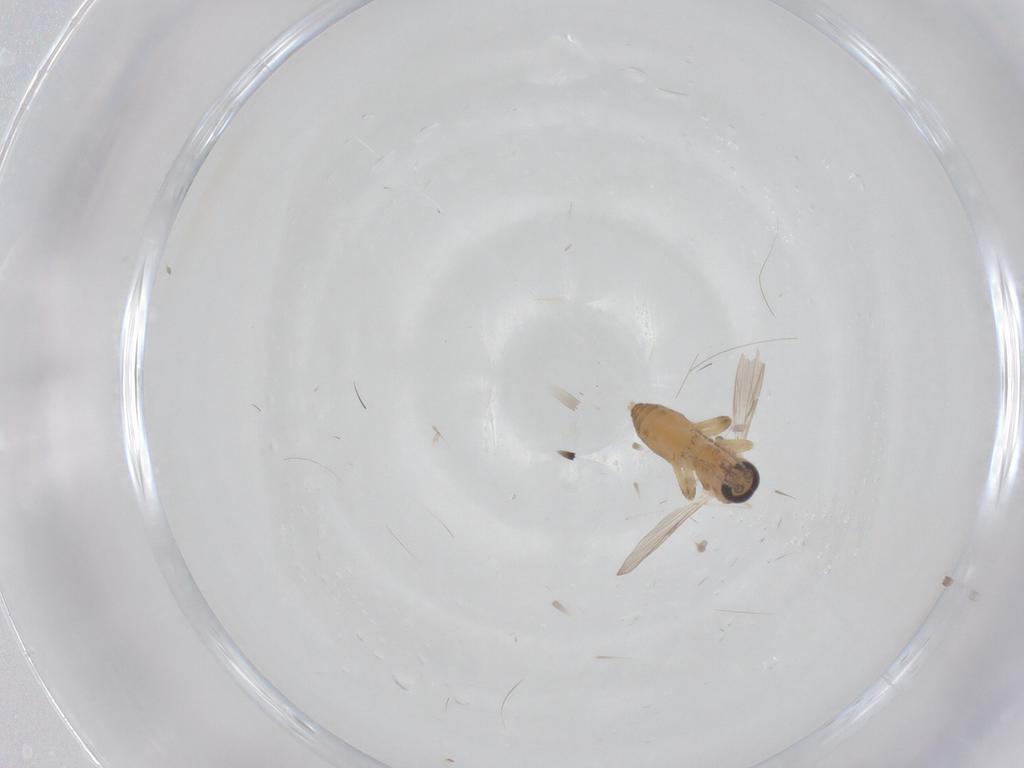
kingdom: Animalia
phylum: Arthropoda
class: Insecta
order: Diptera
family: Ceratopogonidae
